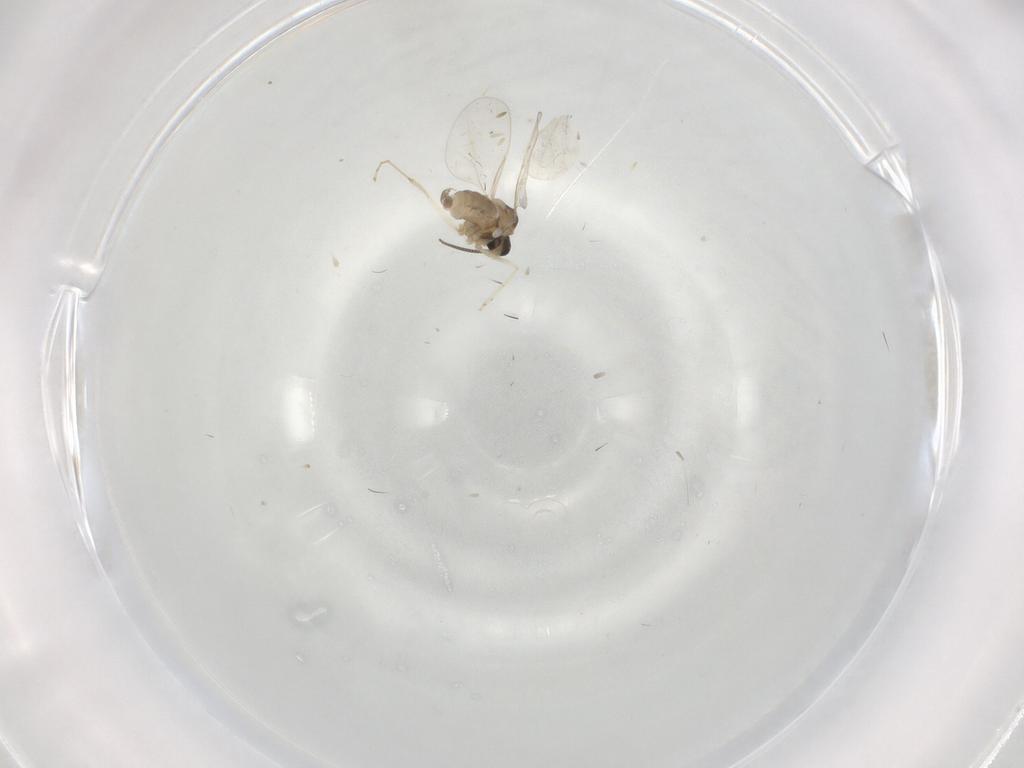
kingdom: Animalia
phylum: Arthropoda
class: Insecta
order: Diptera
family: Cecidomyiidae
